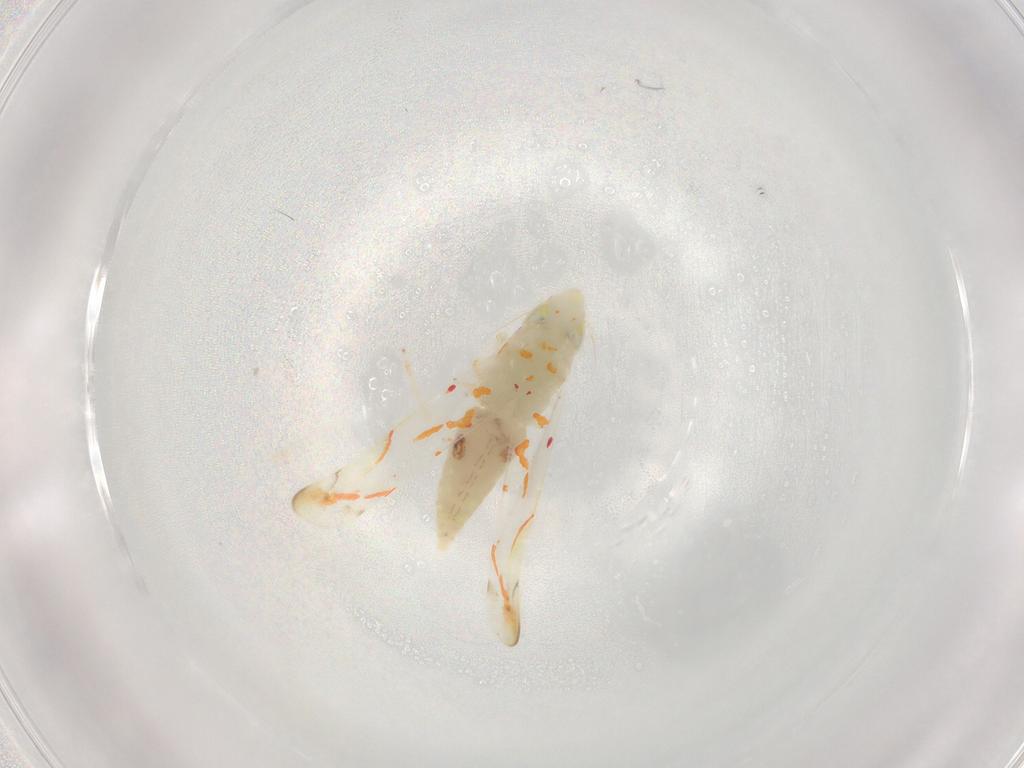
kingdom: Animalia
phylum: Arthropoda
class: Insecta
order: Hemiptera
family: Cicadellidae
